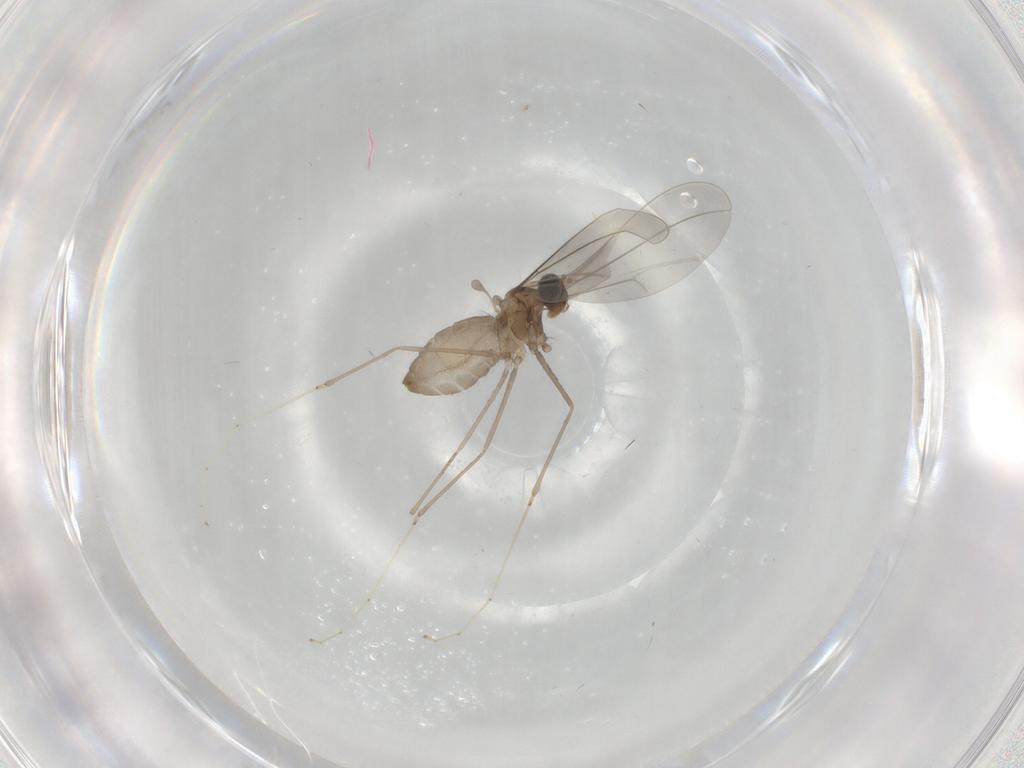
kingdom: Animalia
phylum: Arthropoda
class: Insecta
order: Diptera
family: Cecidomyiidae
